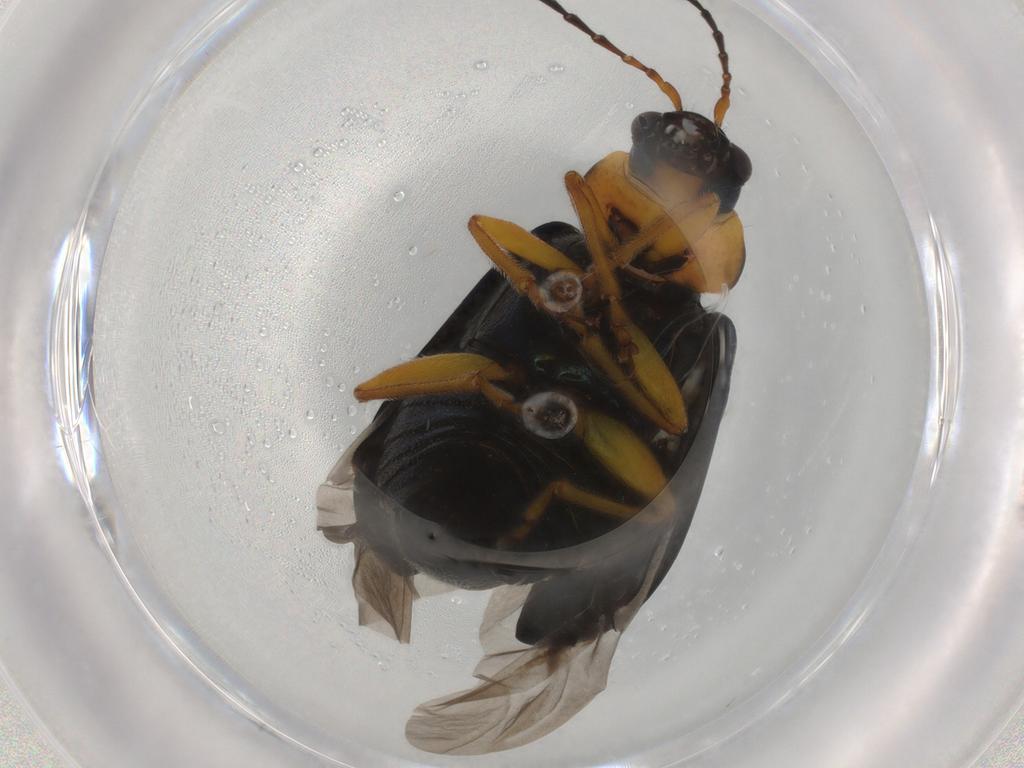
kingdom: Animalia
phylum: Arthropoda
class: Insecta
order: Coleoptera
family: Chrysomelidae
